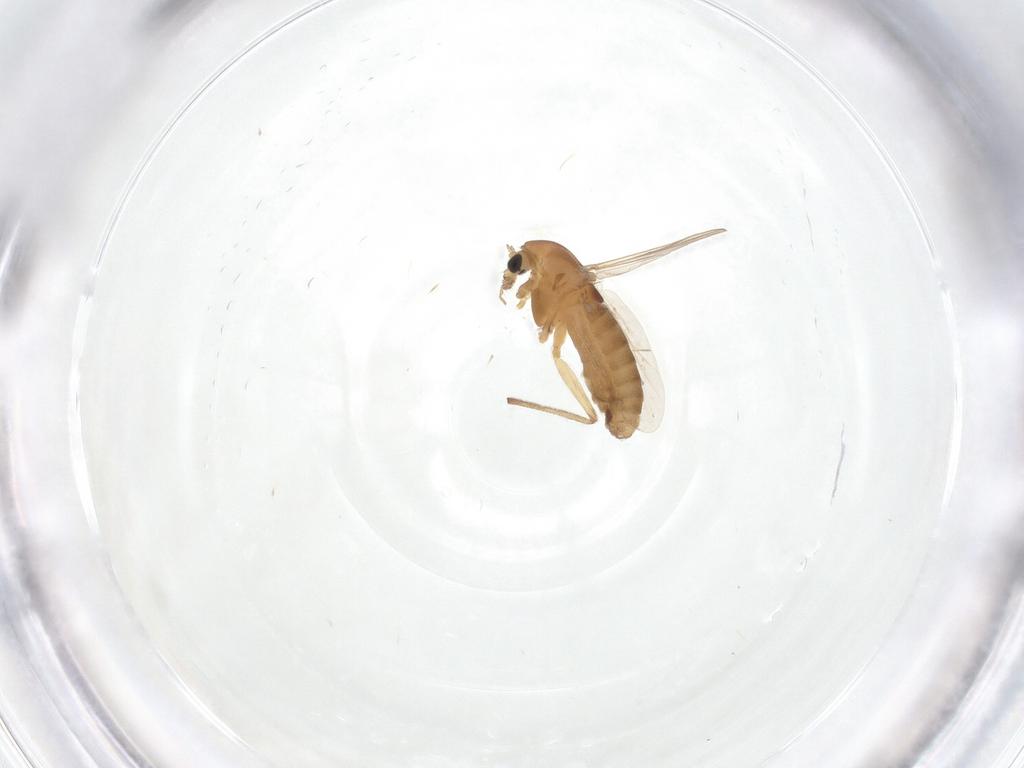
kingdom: Animalia
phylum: Arthropoda
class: Insecta
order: Diptera
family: Chironomidae
